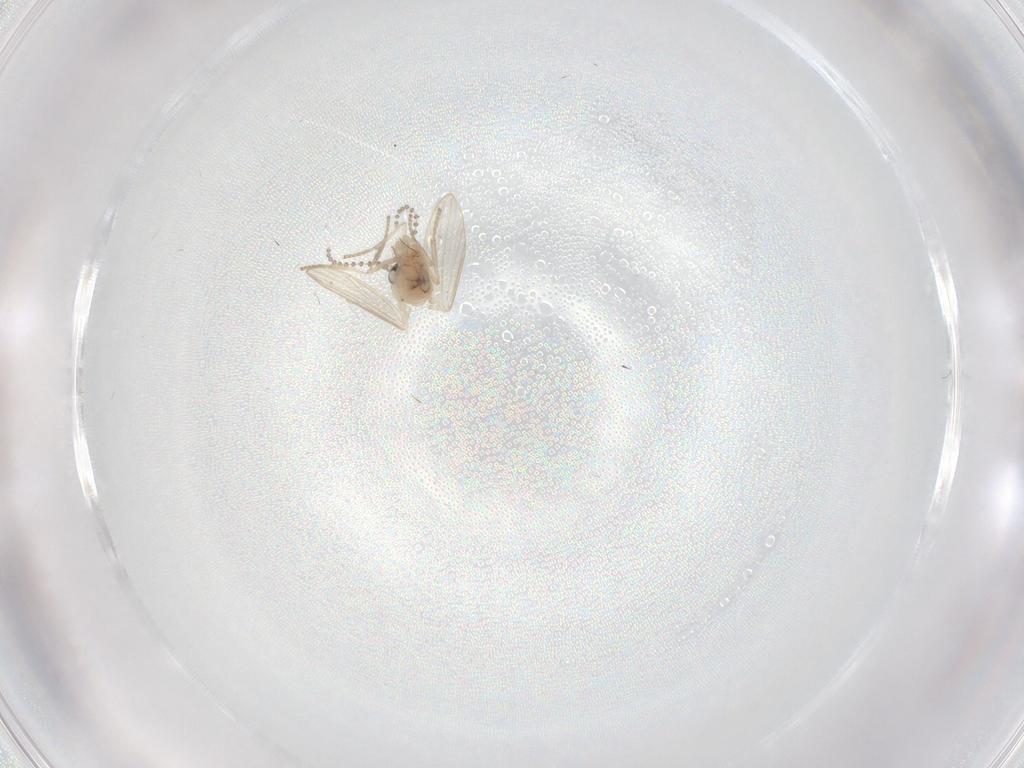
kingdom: Animalia
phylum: Arthropoda
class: Insecta
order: Diptera
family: Psychodidae
